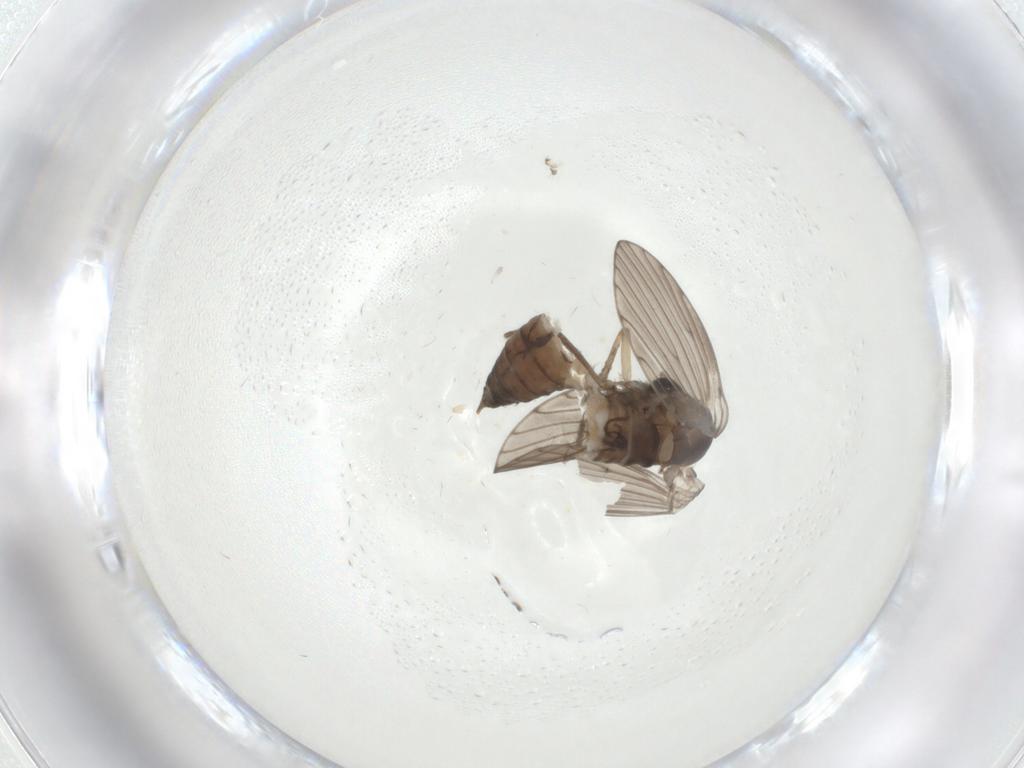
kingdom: Animalia
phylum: Arthropoda
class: Insecta
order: Diptera
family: Psychodidae
